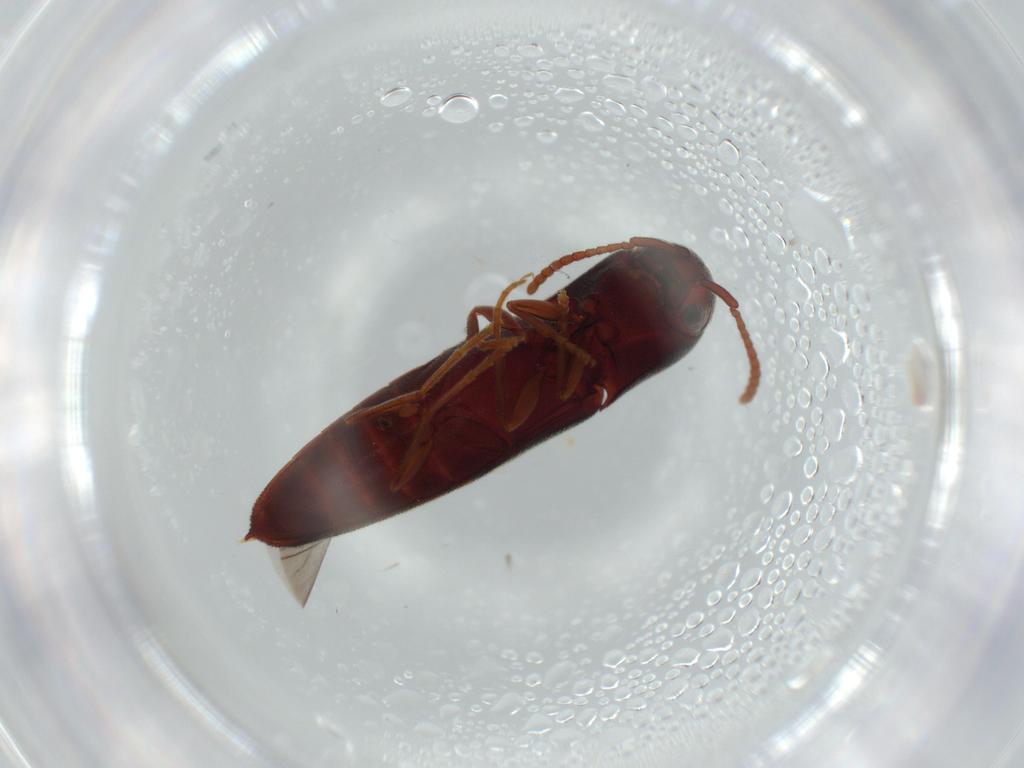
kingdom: Animalia
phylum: Arthropoda
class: Insecta
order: Coleoptera
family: Eucnemidae
